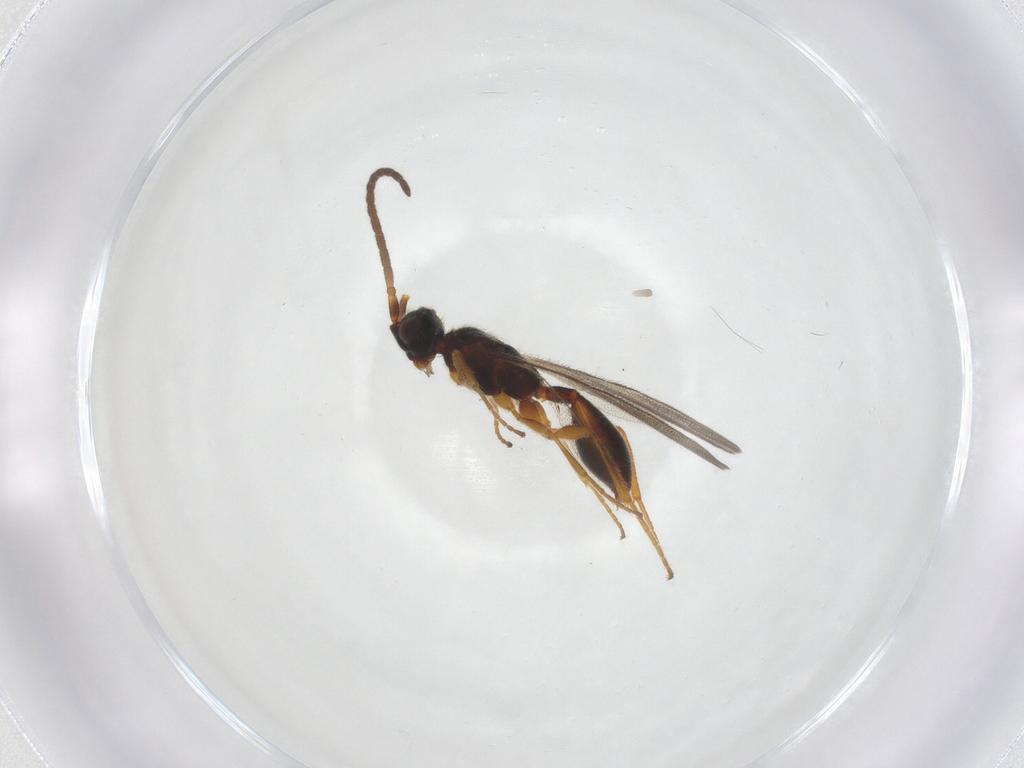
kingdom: Animalia
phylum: Arthropoda
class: Insecta
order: Hymenoptera
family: Diapriidae
